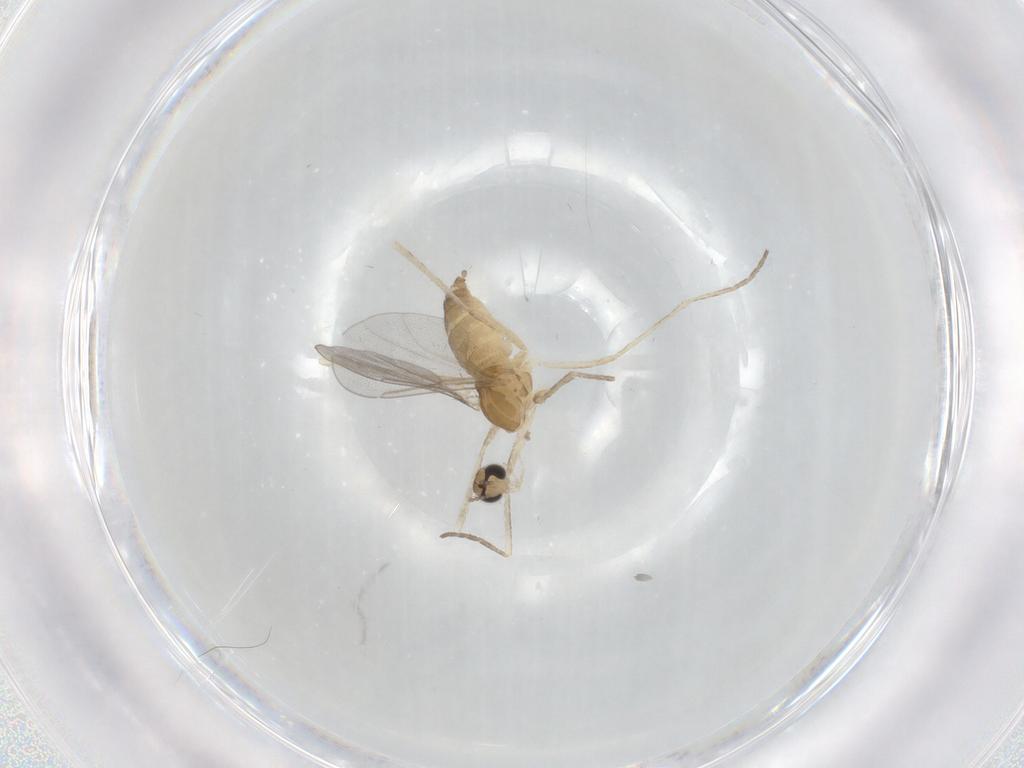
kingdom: Animalia
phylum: Arthropoda
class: Insecta
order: Diptera
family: Cecidomyiidae
